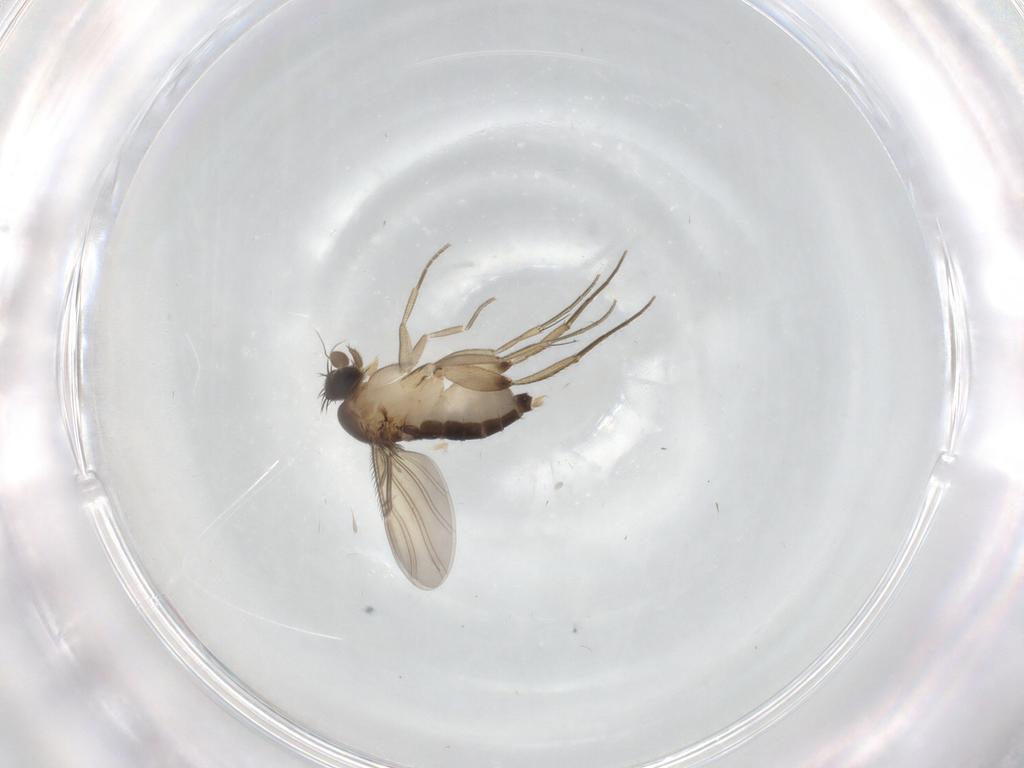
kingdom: Animalia
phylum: Arthropoda
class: Insecta
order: Diptera
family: Phoridae
